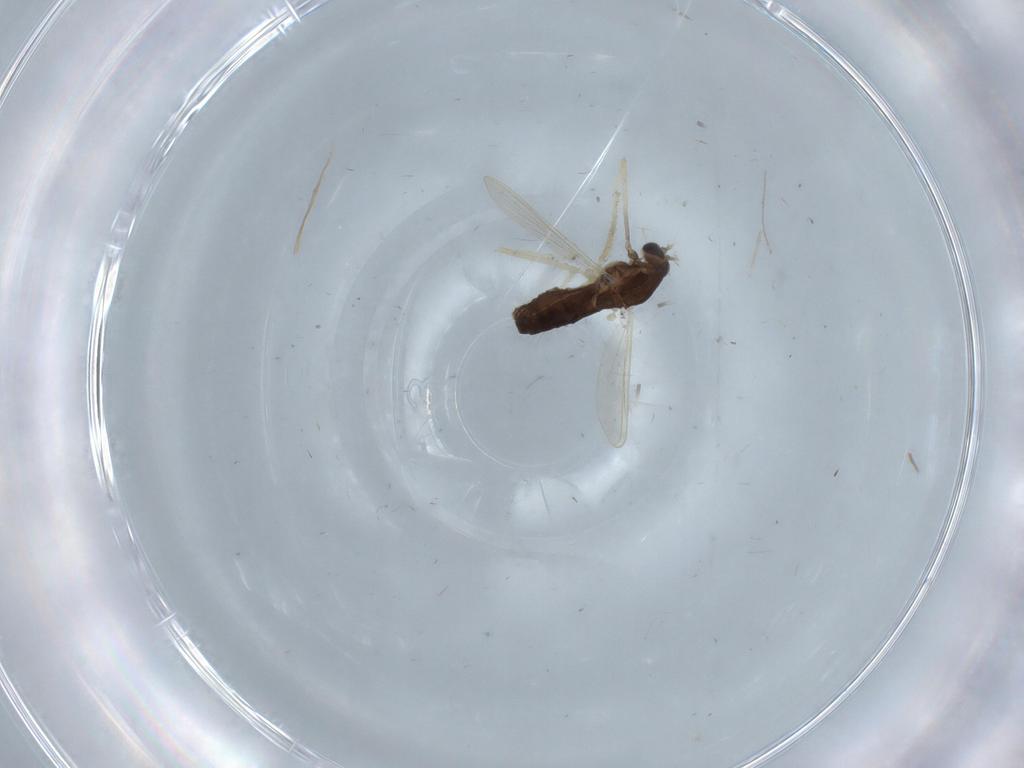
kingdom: Animalia
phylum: Arthropoda
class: Insecta
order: Diptera
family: Chironomidae
